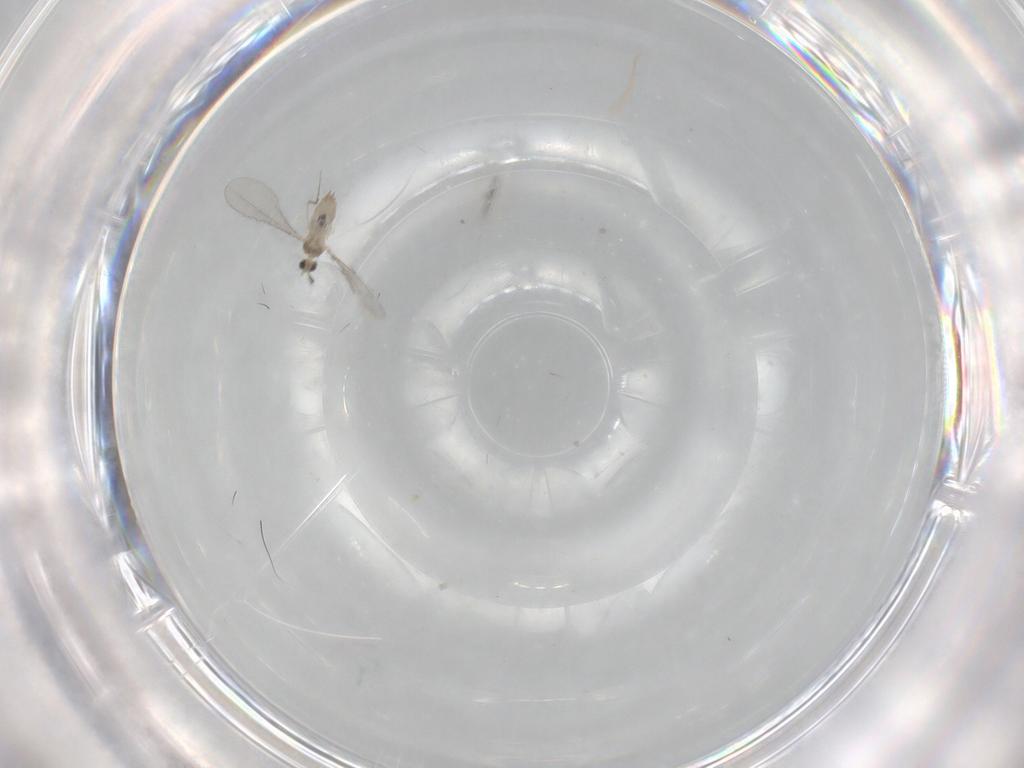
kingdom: Animalia
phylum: Arthropoda
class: Insecta
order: Diptera
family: Cecidomyiidae
